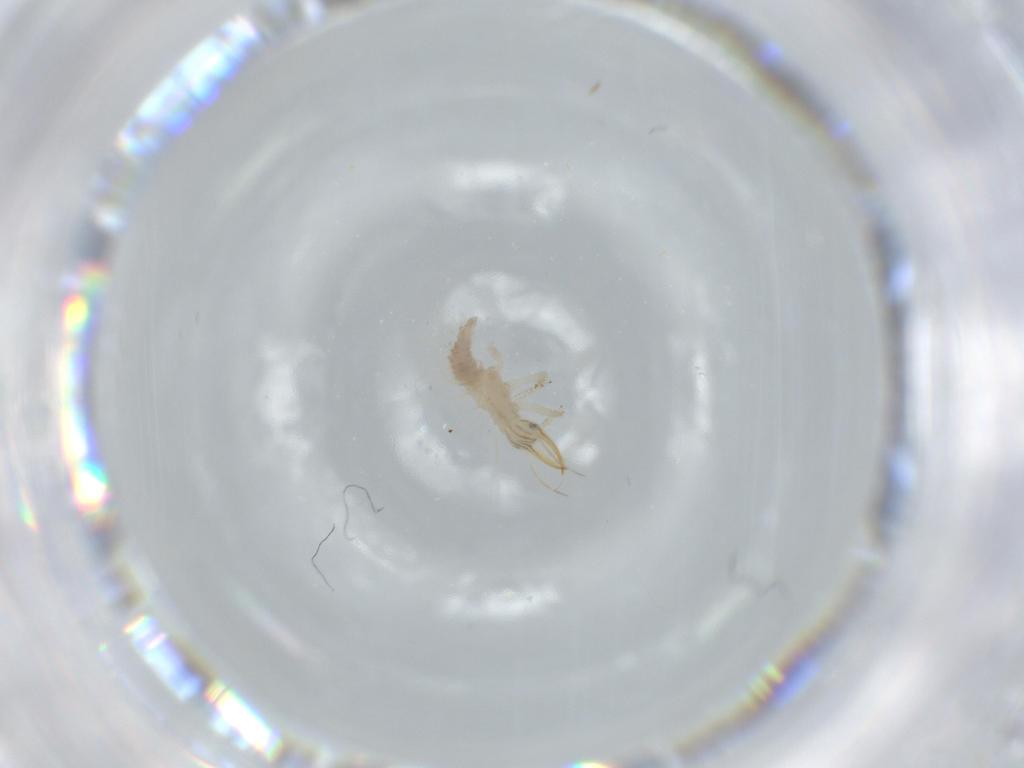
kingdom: Animalia
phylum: Arthropoda
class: Insecta
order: Neuroptera
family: Chrysopidae
